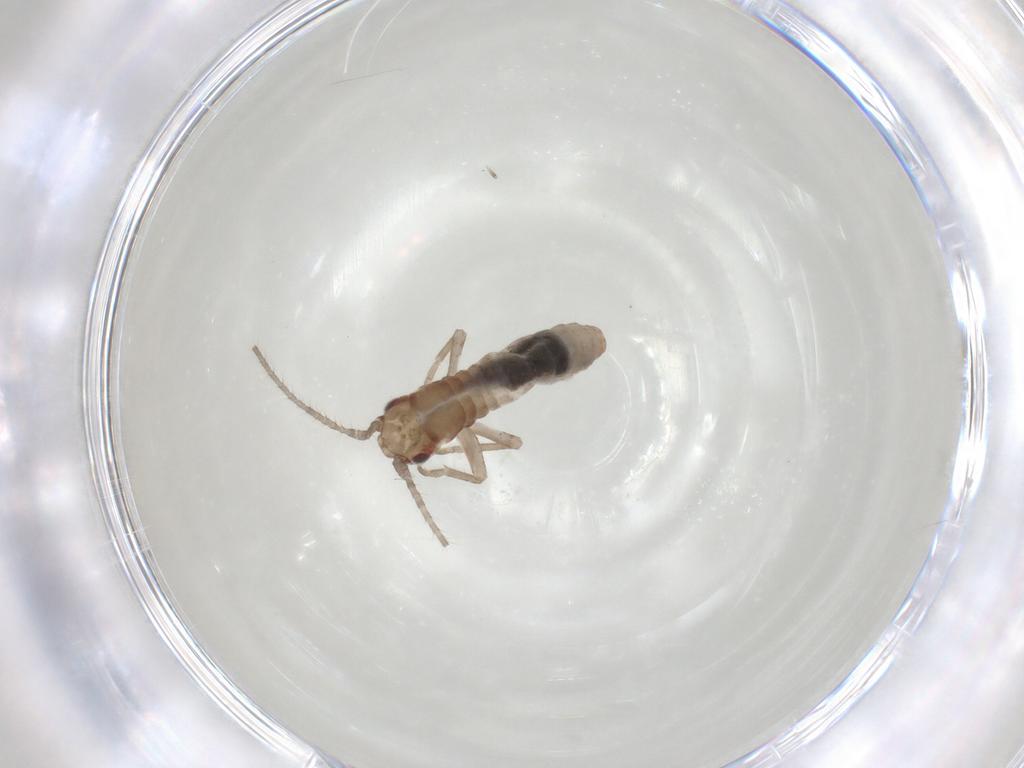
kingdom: Animalia
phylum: Arthropoda
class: Insecta
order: Orthoptera
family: Mogoplistidae
